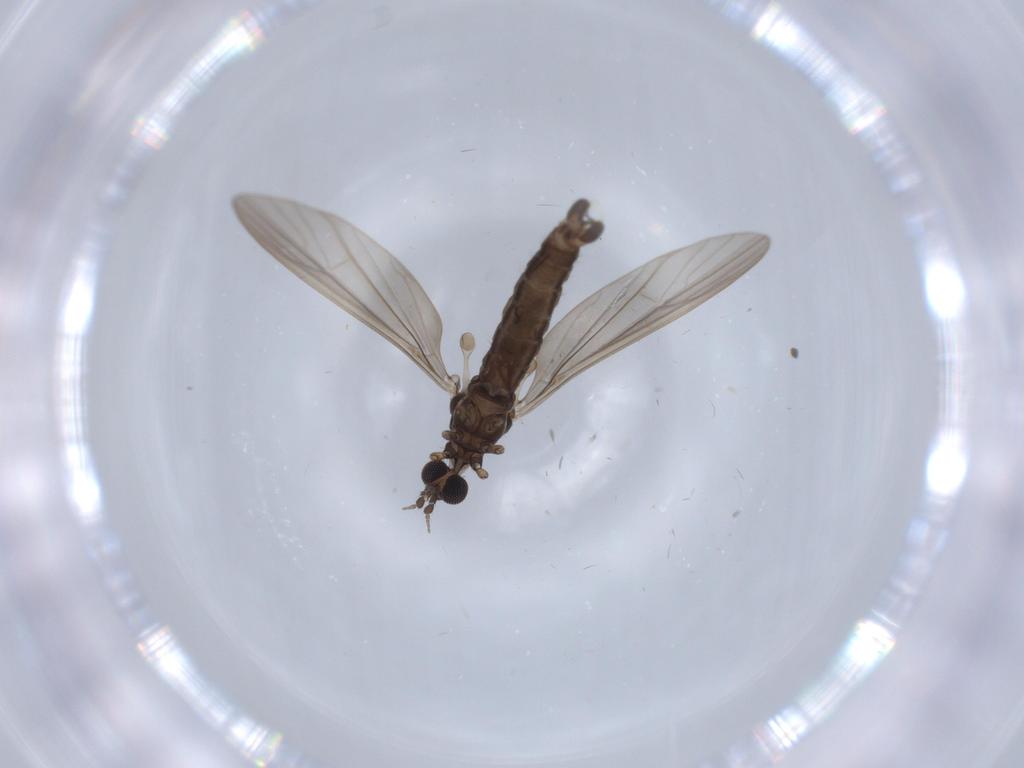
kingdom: Animalia
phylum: Arthropoda
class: Insecta
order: Diptera
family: Limoniidae
